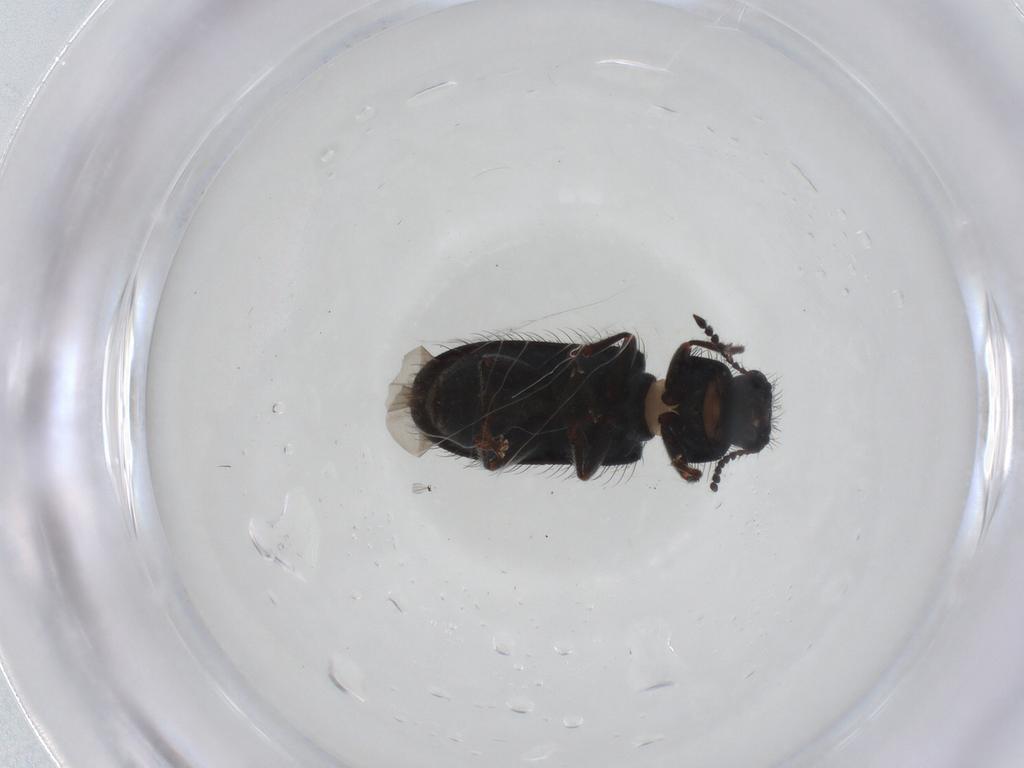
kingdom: Animalia
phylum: Arthropoda
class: Insecta
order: Coleoptera
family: Melyridae
